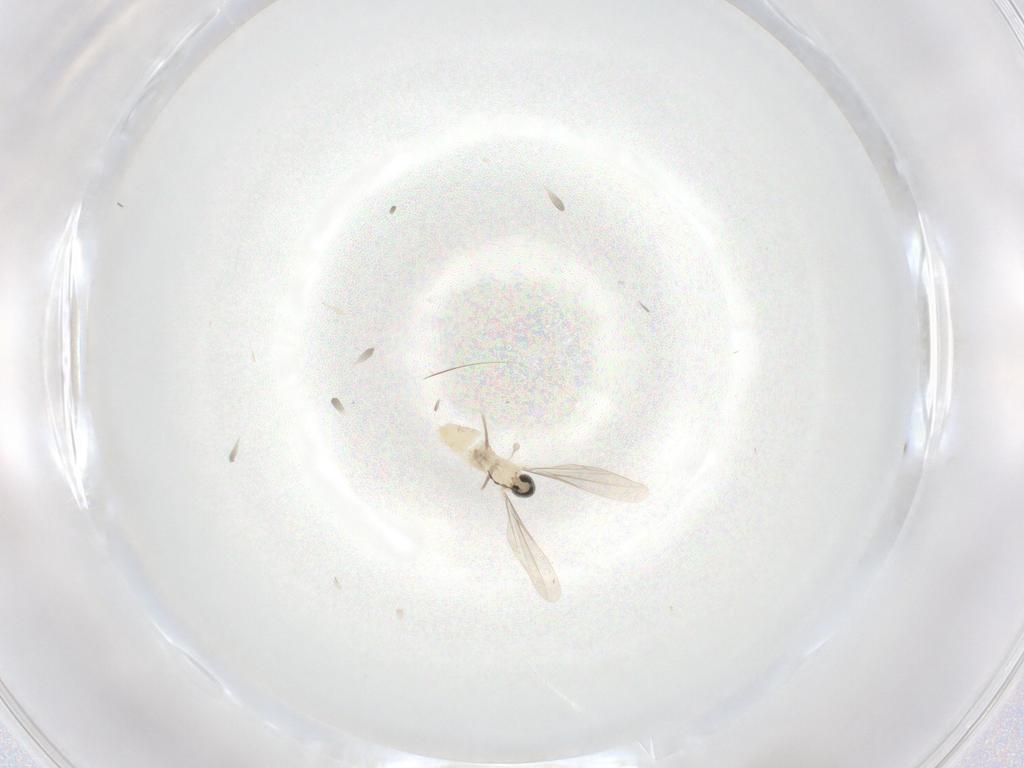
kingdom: Animalia
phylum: Arthropoda
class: Insecta
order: Diptera
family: Cecidomyiidae
